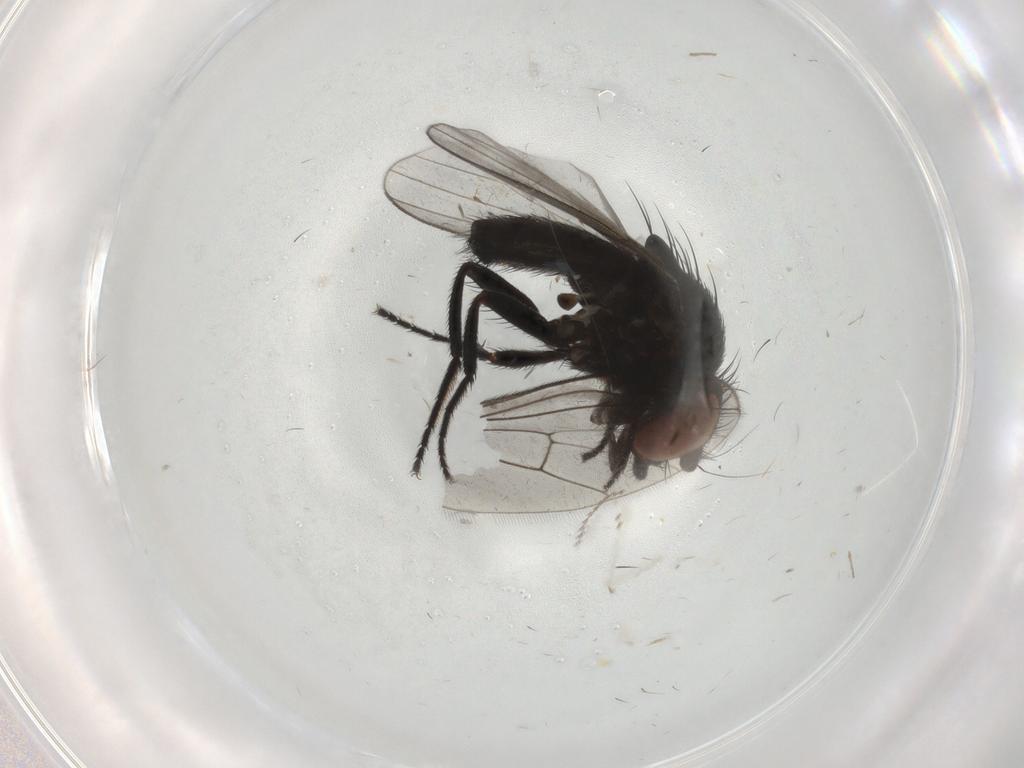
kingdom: Animalia
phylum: Arthropoda
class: Insecta
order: Diptera
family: Milichiidae
